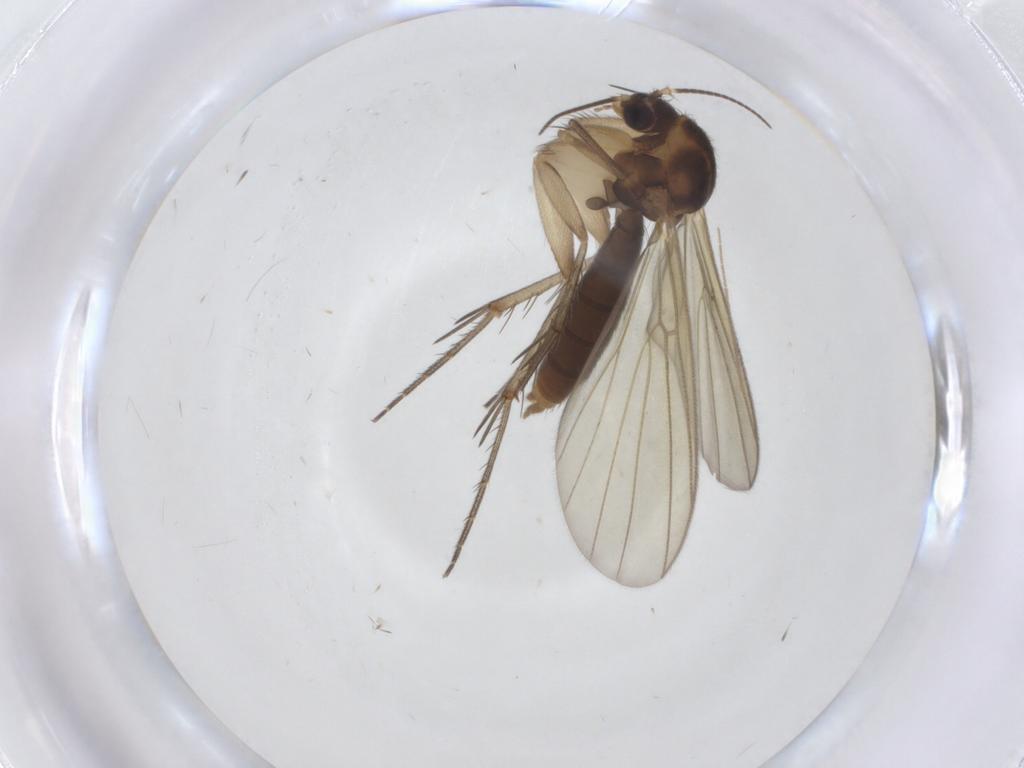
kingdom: Animalia
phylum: Arthropoda
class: Insecta
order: Diptera
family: Mycetophilidae
